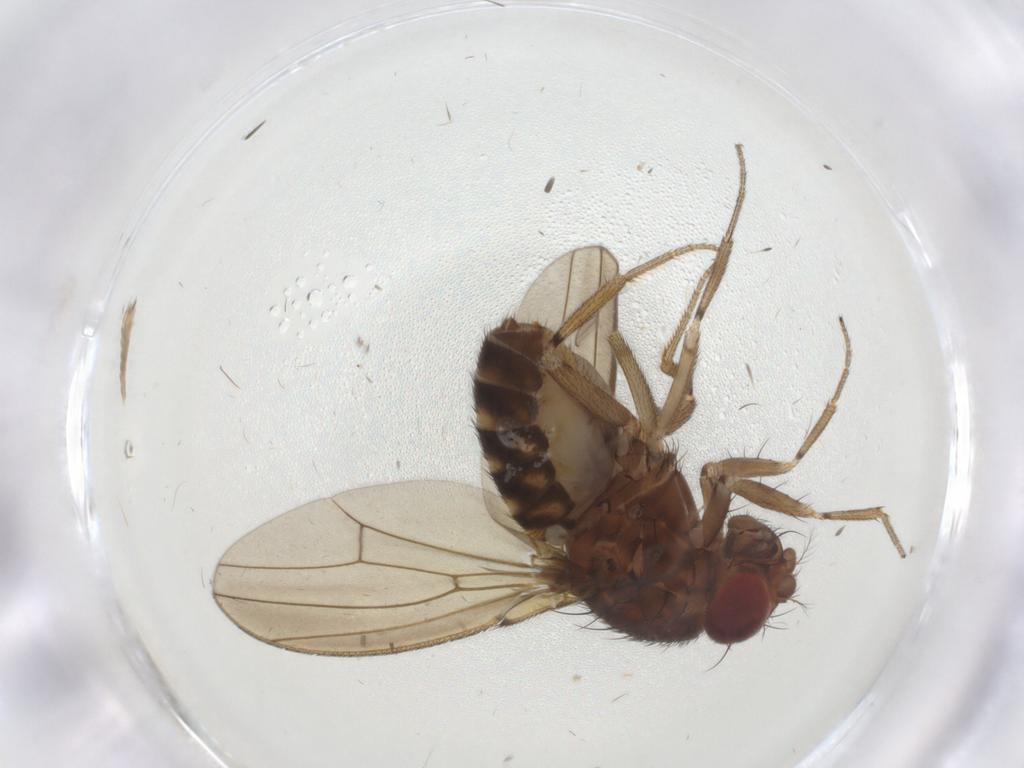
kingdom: Animalia
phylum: Arthropoda
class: Insecta
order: Diptera
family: Drosophilidae
